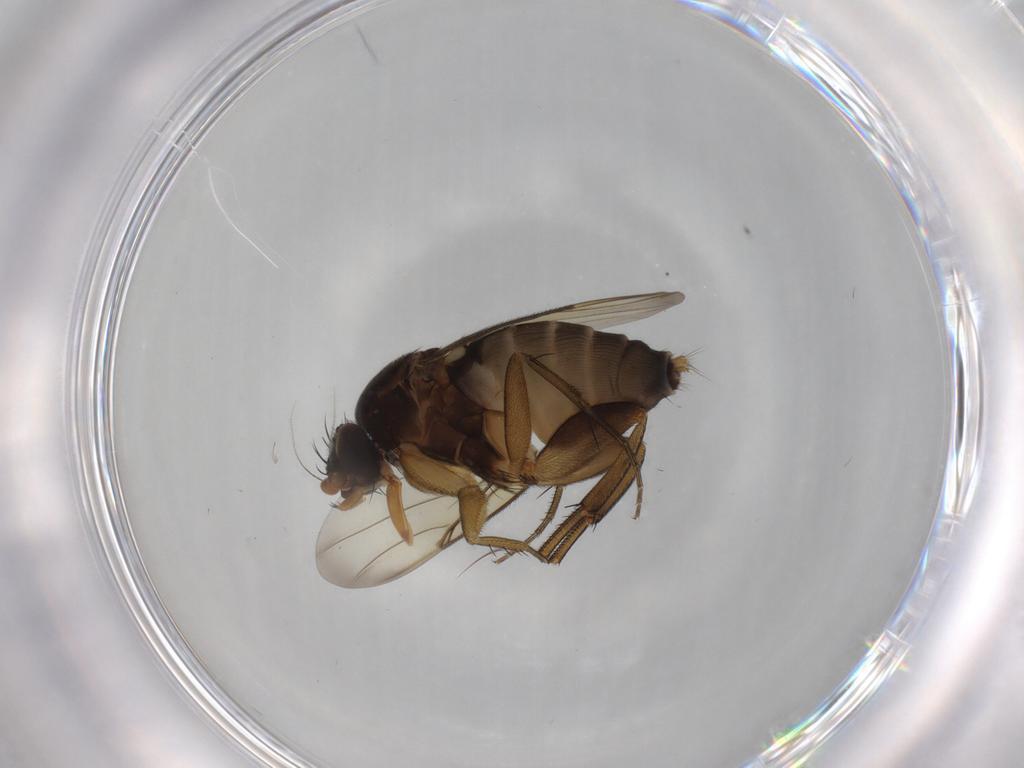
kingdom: Animalia
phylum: Arthropoda
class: Insecta
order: Diptera
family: Phoridae
